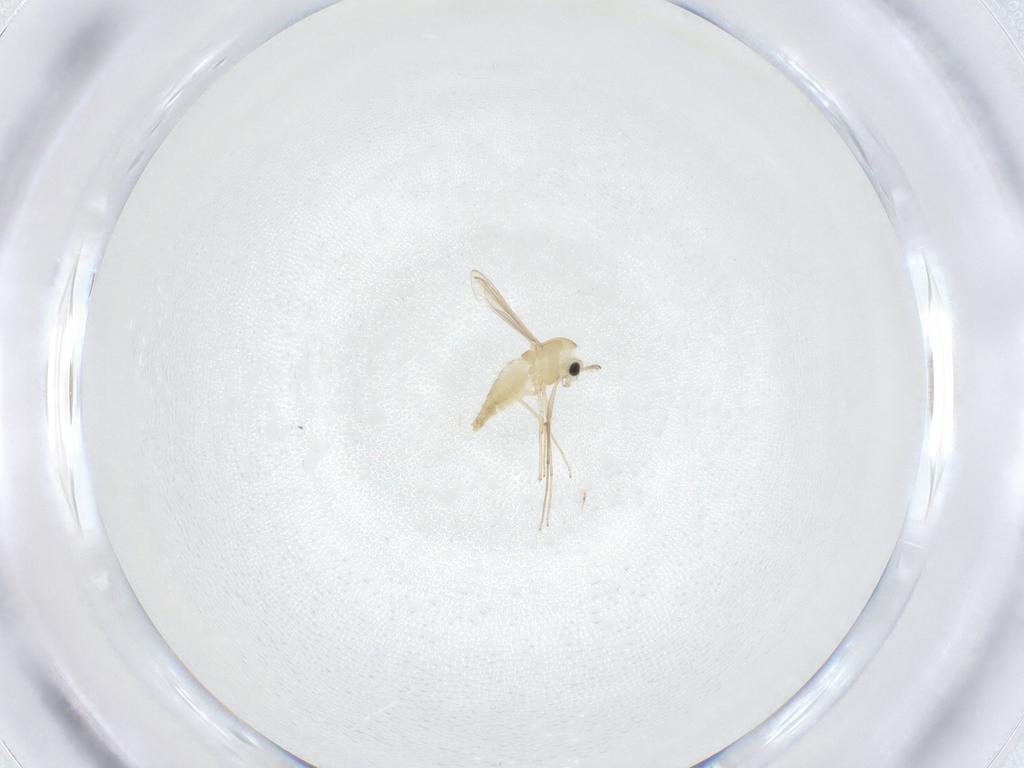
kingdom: Animalia
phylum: Arthropoda
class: Insecta
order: Diptera
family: Chironomidae
